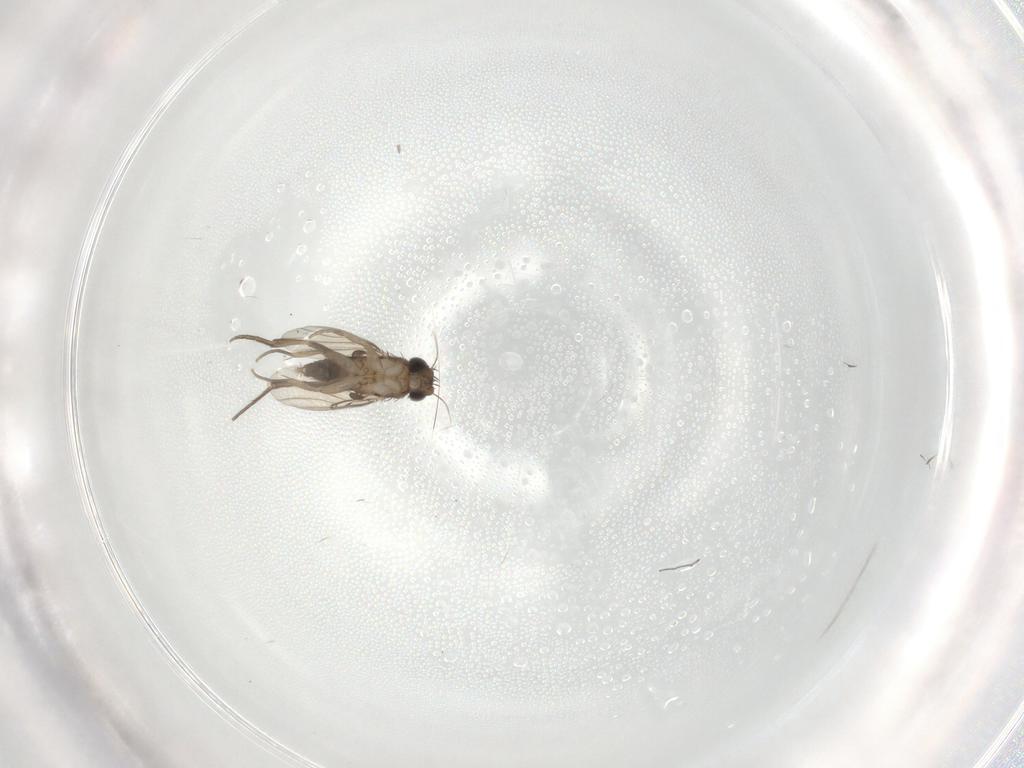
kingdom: Animalia
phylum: Arthropoda
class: Insecta
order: Diptera
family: Phoridae
